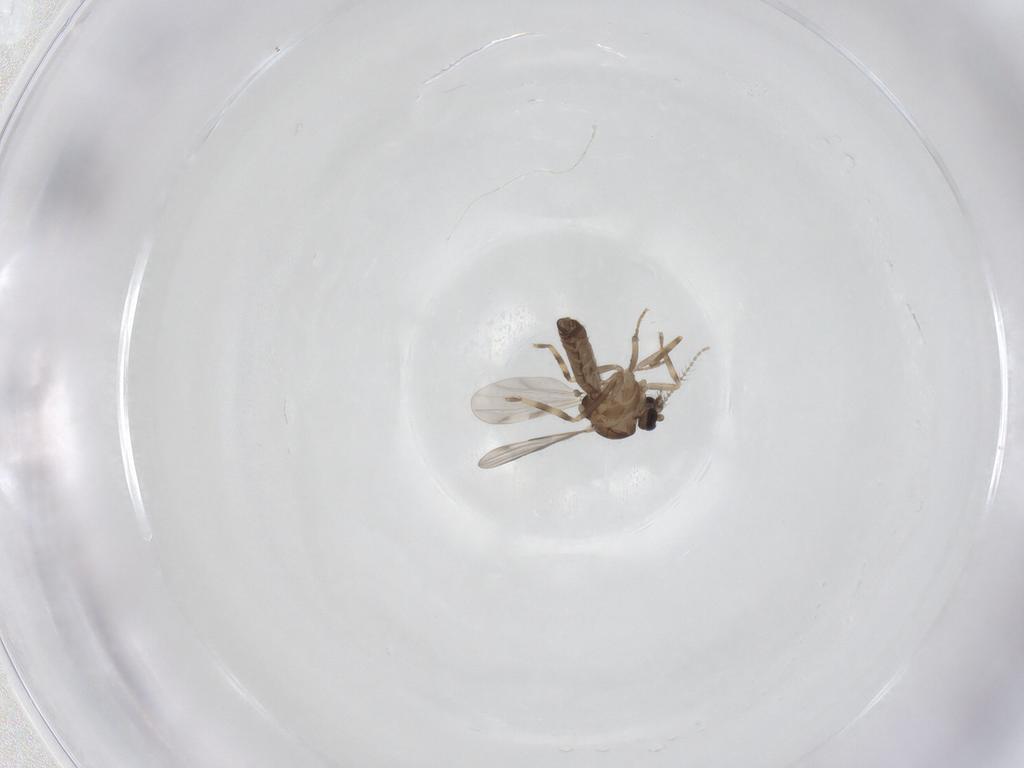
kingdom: Animalia
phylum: Arthropoda
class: Insecta
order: Diptera
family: Ceratopogonidae
